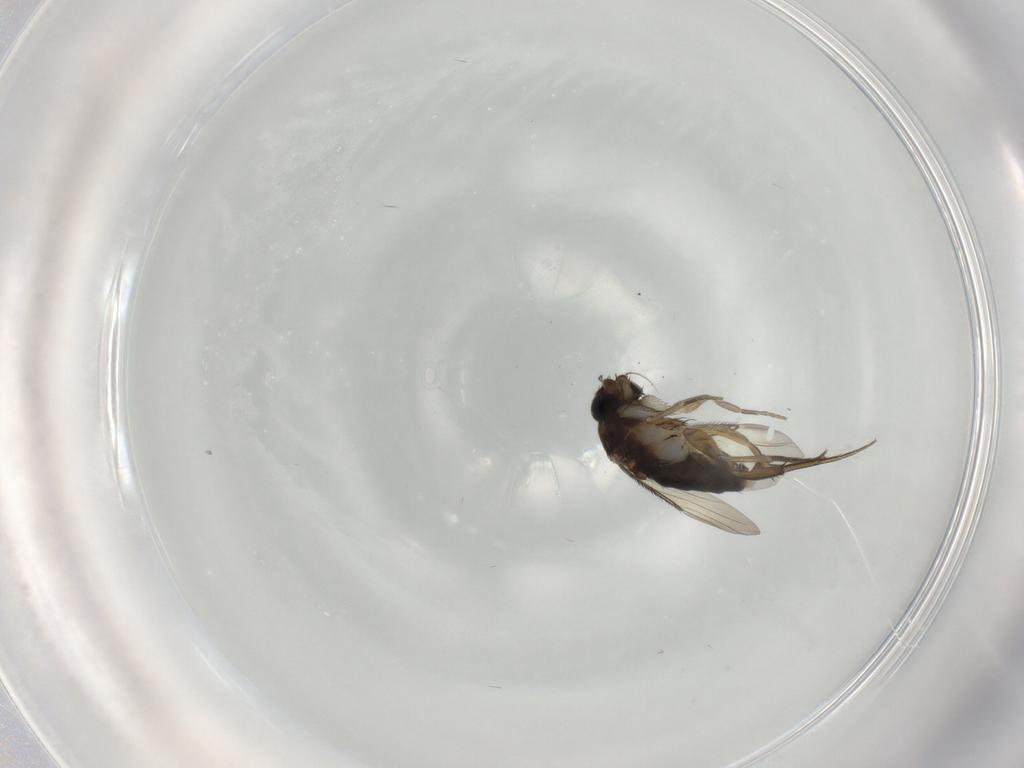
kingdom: Animalia
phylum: Arthropoda
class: Insecta
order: Diptera
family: Phoridae
